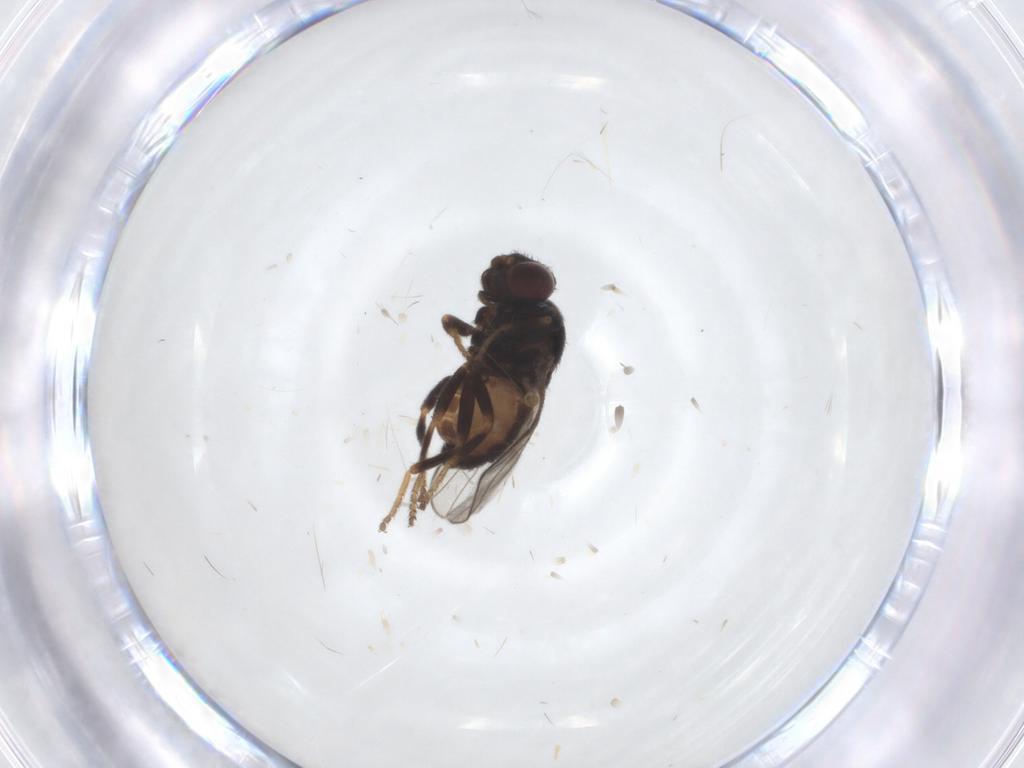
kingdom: Animalia
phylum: Arthropoda
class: Insecta
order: Diptera
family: Chloropidae
